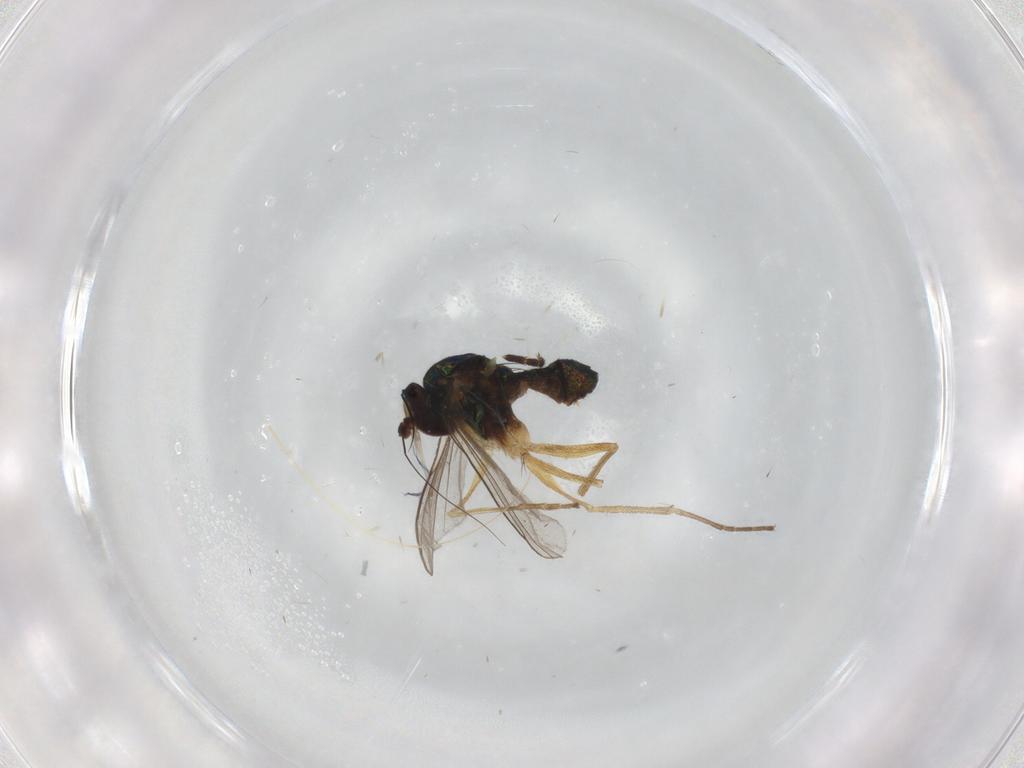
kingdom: Animalia
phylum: Arthropoda
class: Insecta
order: Diptera
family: Dolichopodidae
